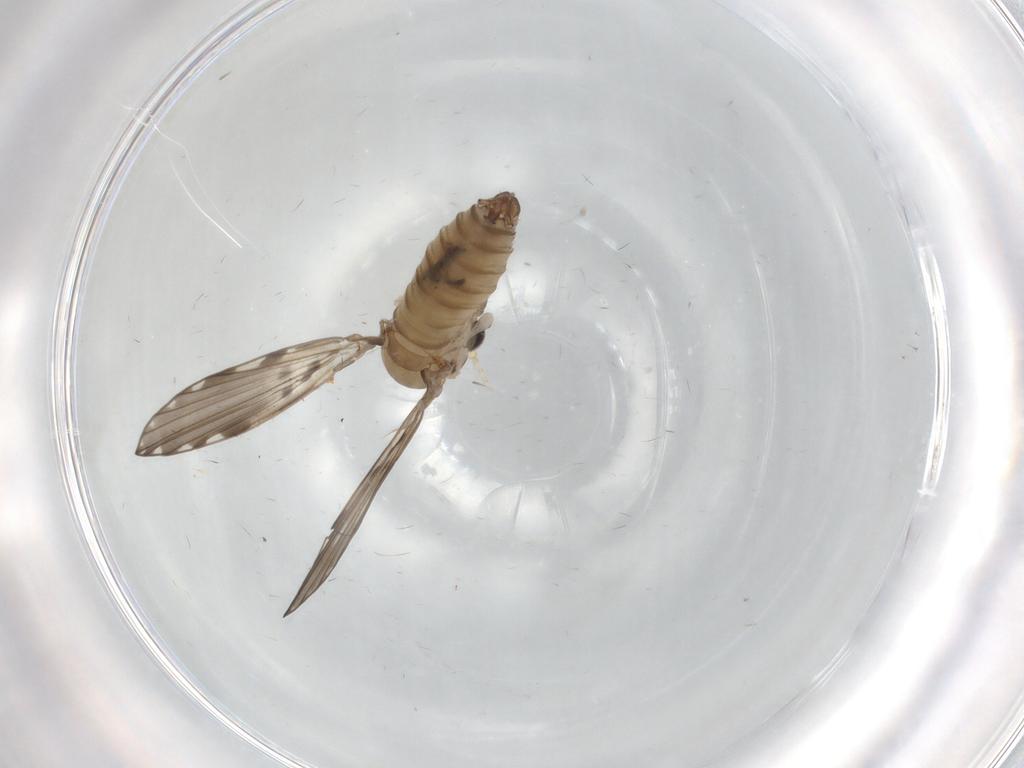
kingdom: Animalia
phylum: Arthropoda
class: Insecta
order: Diptera
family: Psychodidae
